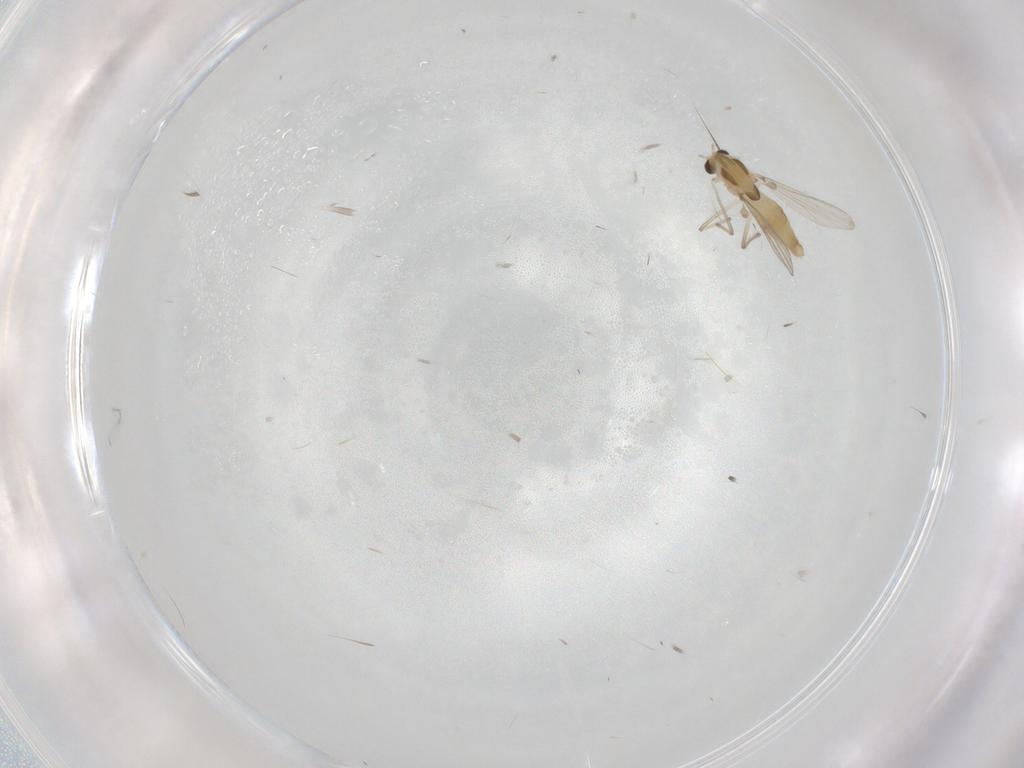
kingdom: Animalia
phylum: Arthropoda
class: Insecta
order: Diptera
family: Chironomidae
